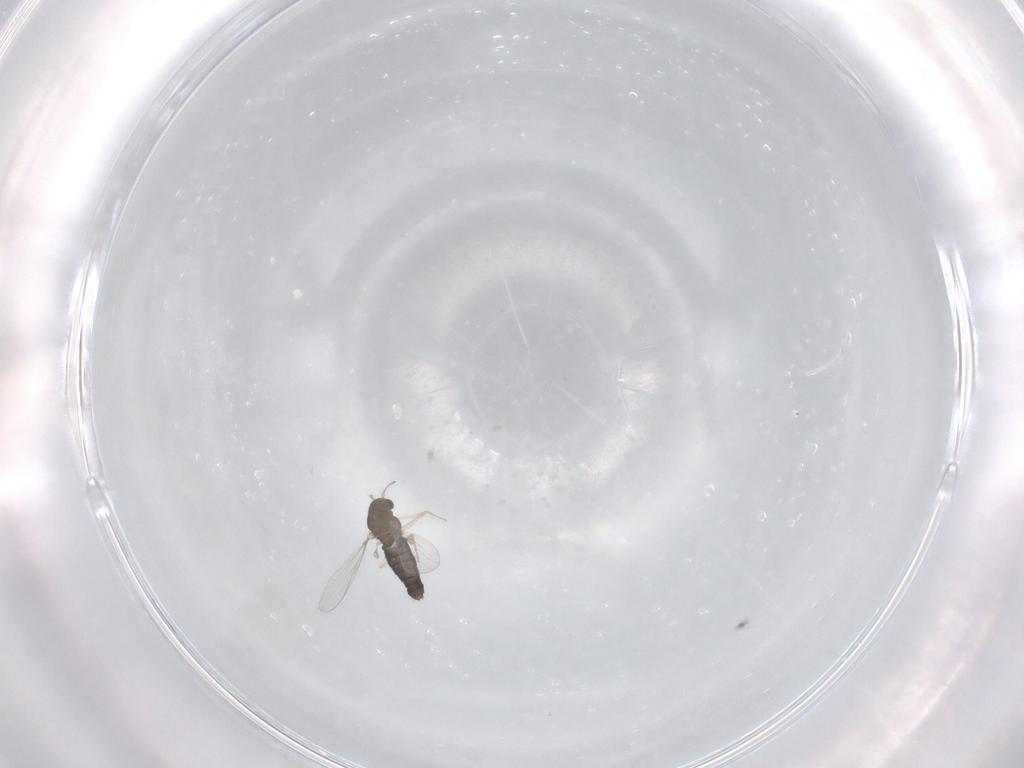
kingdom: Animalia
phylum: Arthropoda
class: Insecta
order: Diptera
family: Chironomidae
